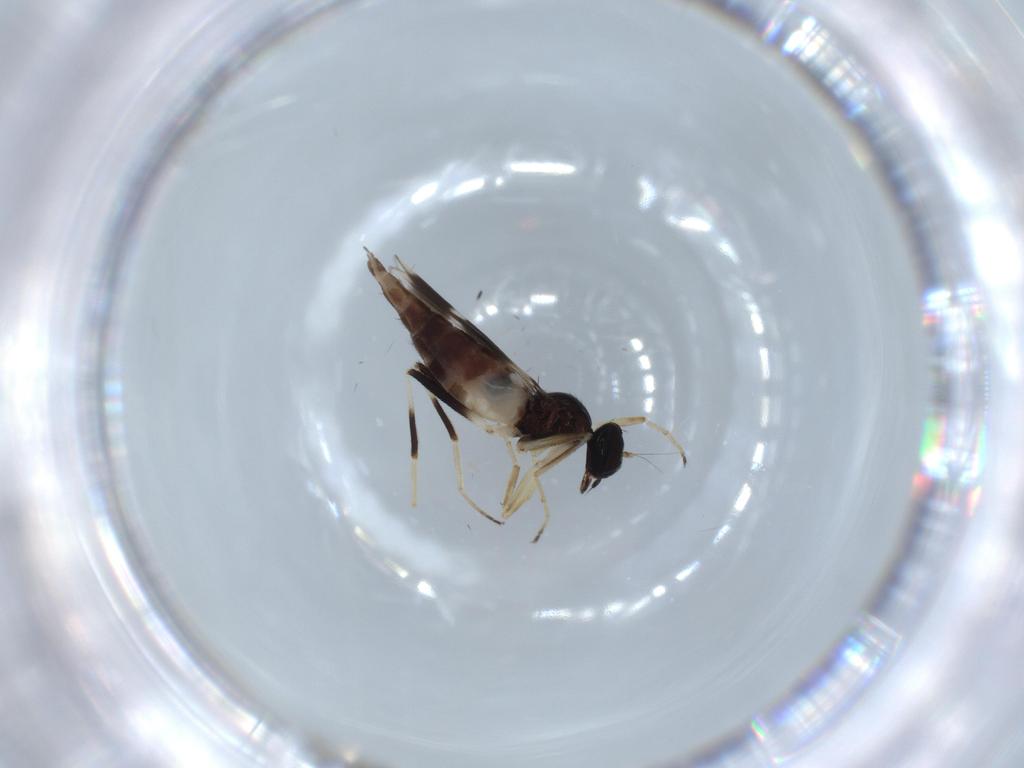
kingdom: Animalia
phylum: Arthropoda
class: Insecta
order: Diptera
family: Hybotidae
